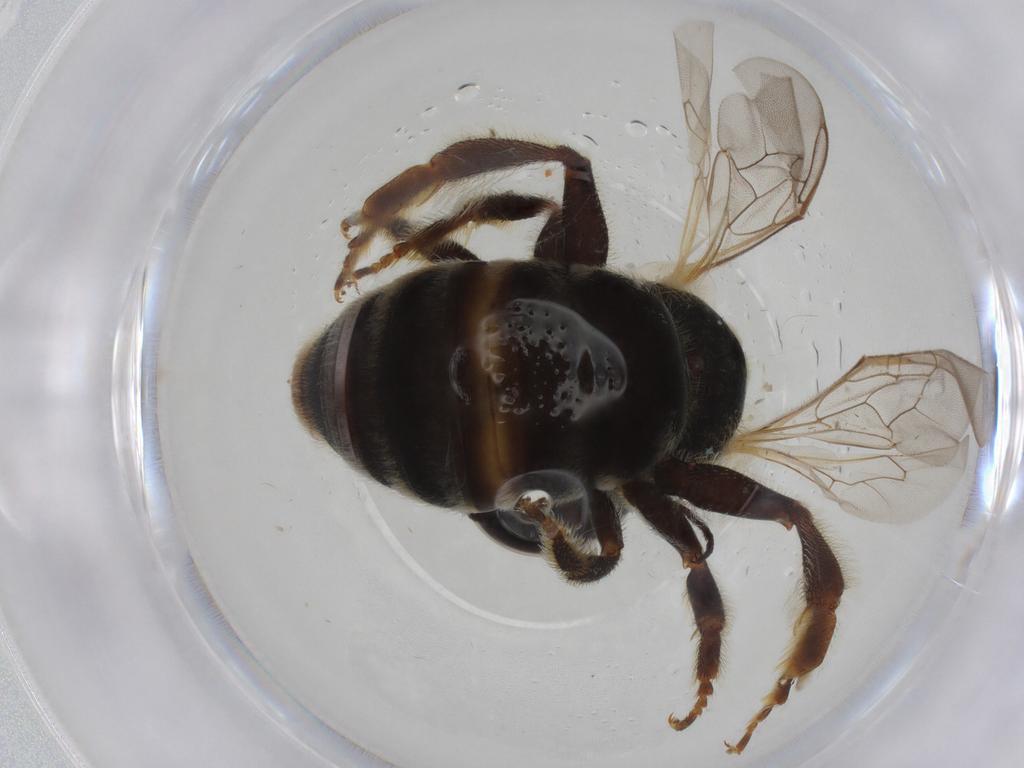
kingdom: Animalia
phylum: Arthropoda
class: Insecta
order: Hymenoptera
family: Halictidae
